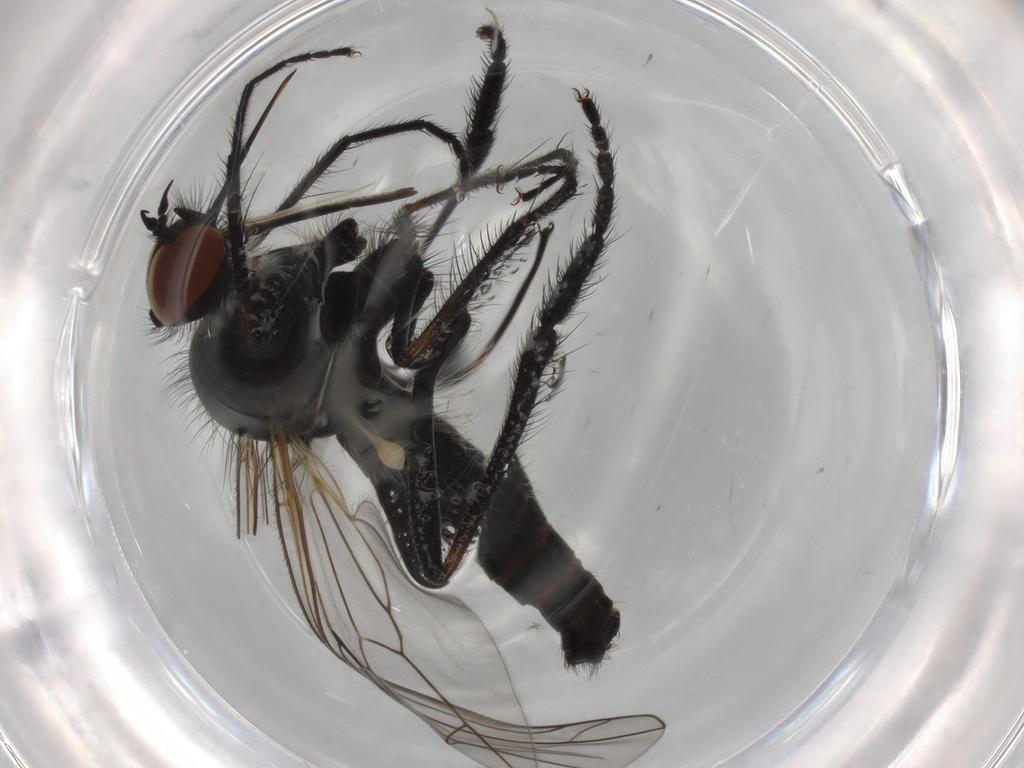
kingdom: Animalia
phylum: Arthropoda
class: Insecta
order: Diptera
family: Empididae
